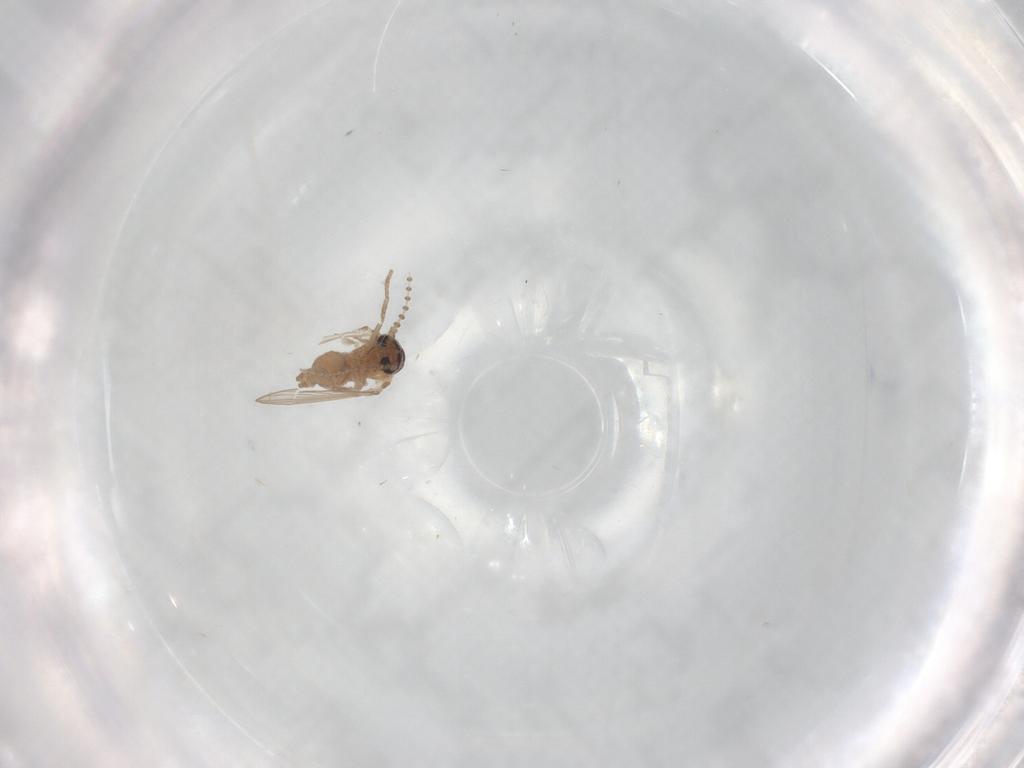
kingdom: Animalia
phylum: Arthropoda
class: Insecta
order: Diptera
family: Psychodidae
